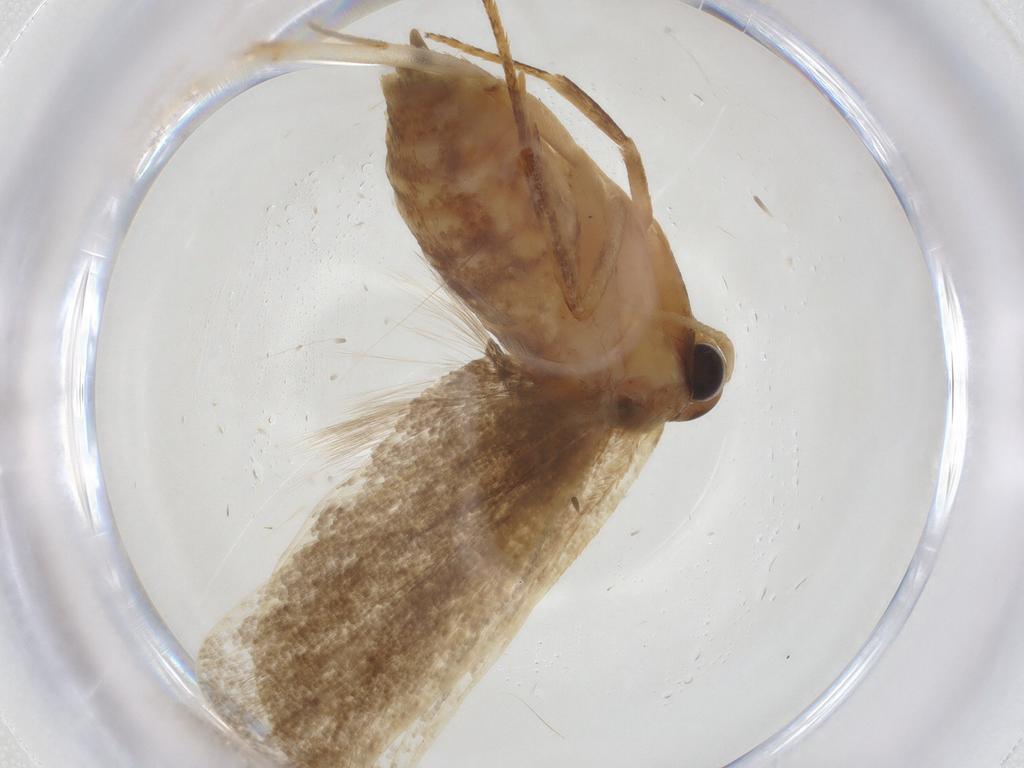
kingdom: Animalia
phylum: Arthropoda
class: Insecta
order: Lepidoptera
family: Lecithoceridae
